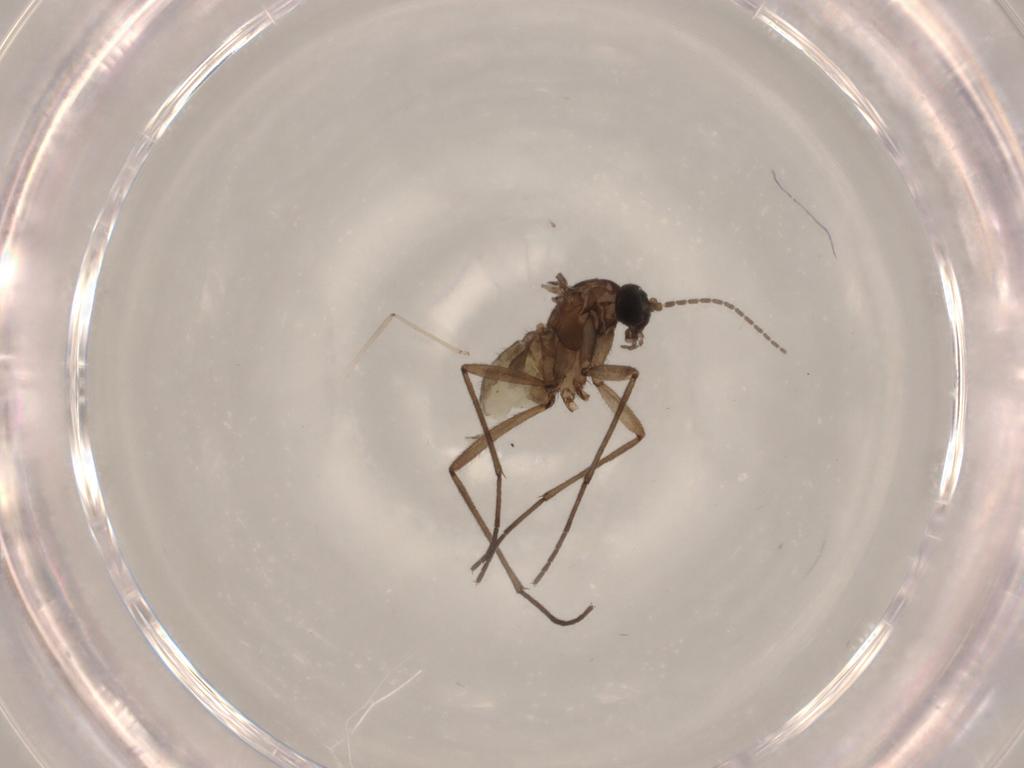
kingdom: Animalia
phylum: Arthropoda
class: Insecta
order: Diptera
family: Sciaridae
